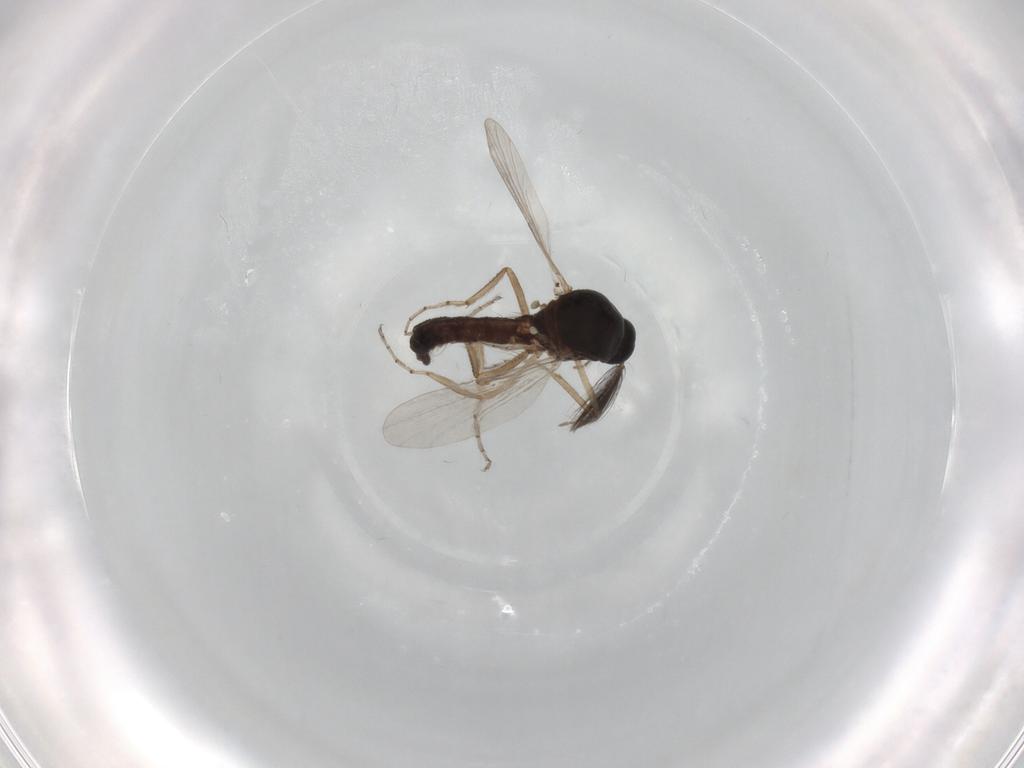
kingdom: Animalia
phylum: Arthropoda
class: Insecta
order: Diptera
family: Ceratopogonidae
